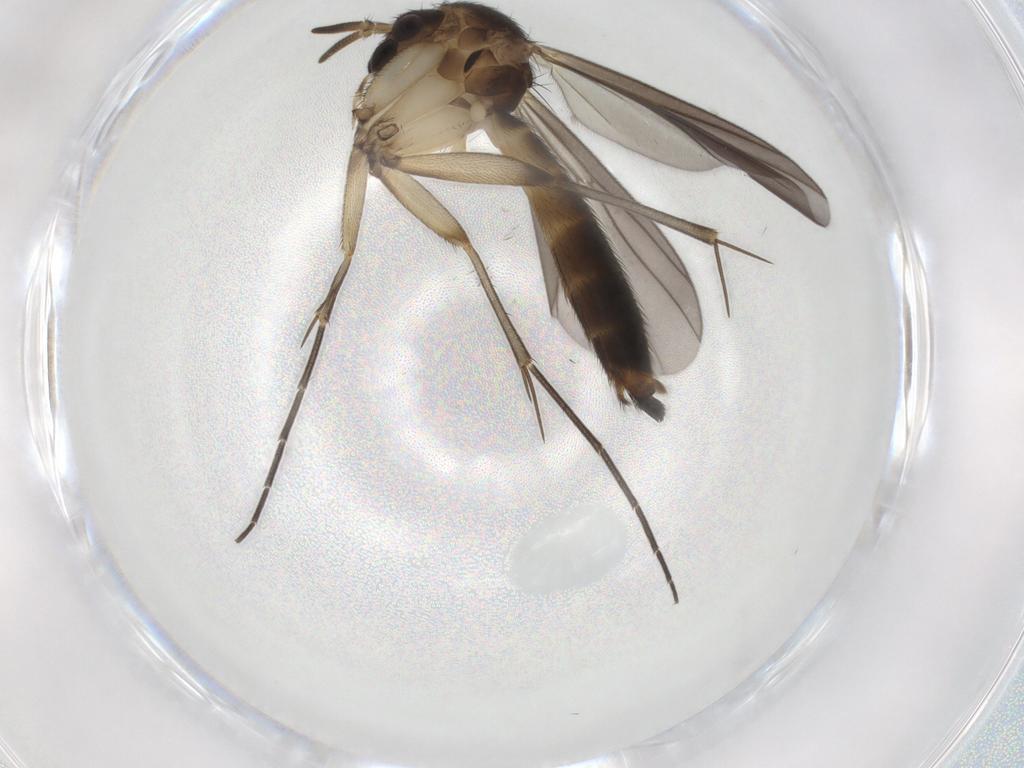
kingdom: Animalia
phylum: Arthropoda
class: Insecta
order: Diptera
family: Mycetophilidae
